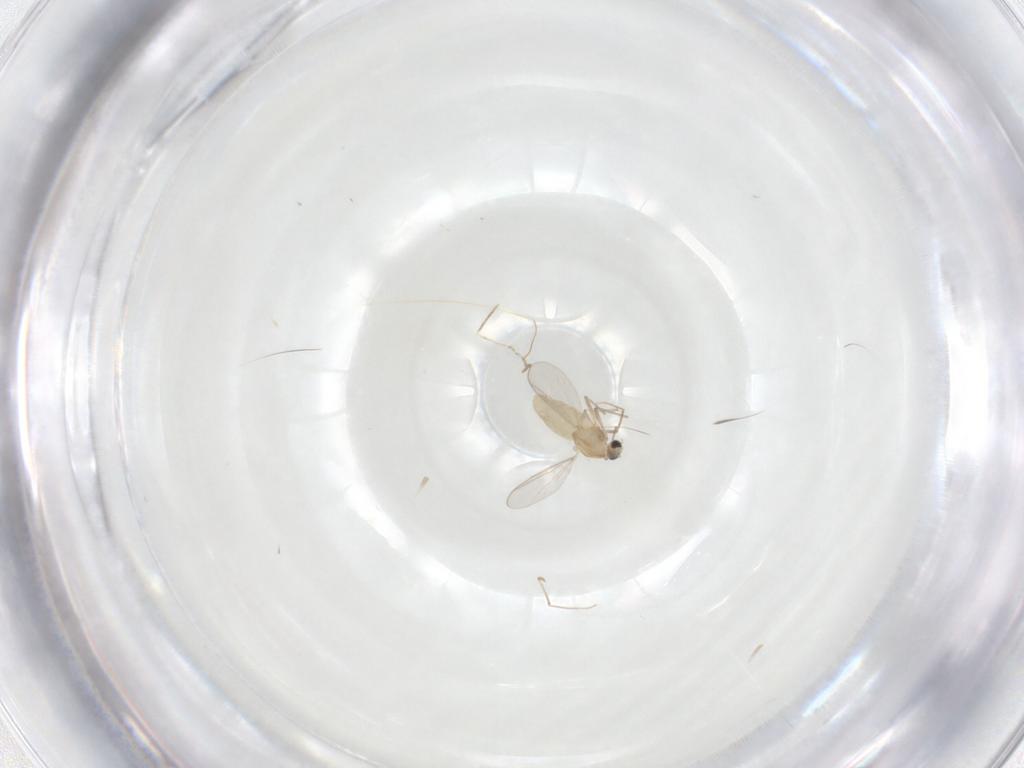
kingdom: Animalia
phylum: Arthropoda
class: Insecta
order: Diptera
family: Chironomidae
